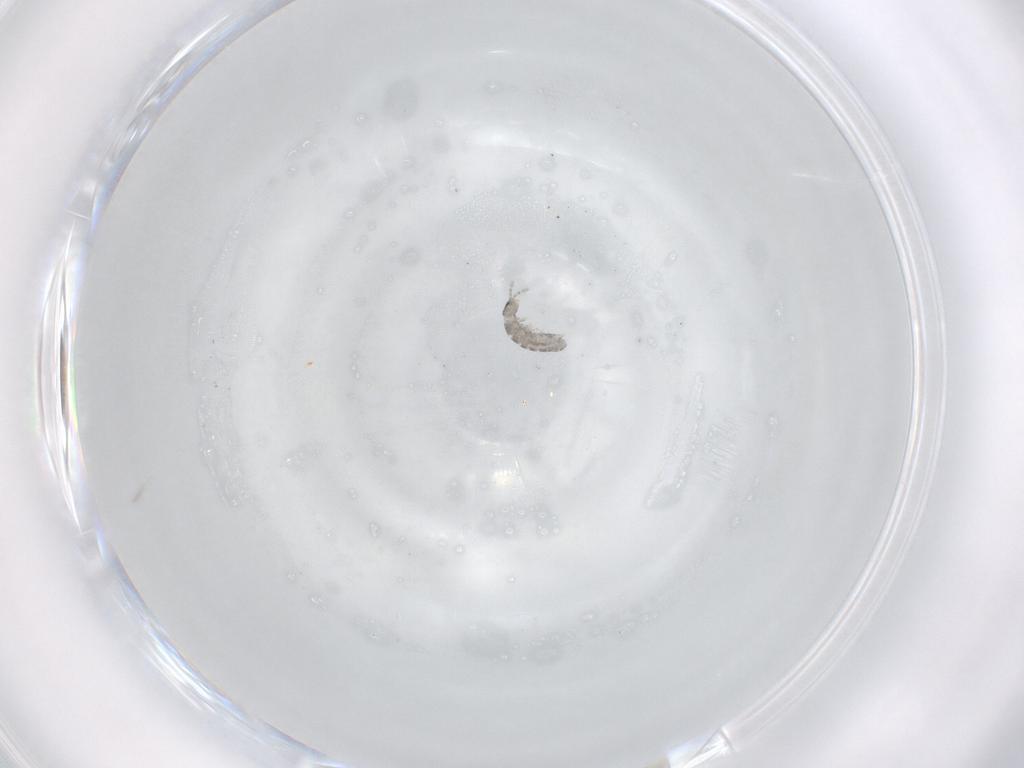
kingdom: Animalia
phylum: Arthropoda
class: Collembola
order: Entomobryomorpha
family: Isotomidae
